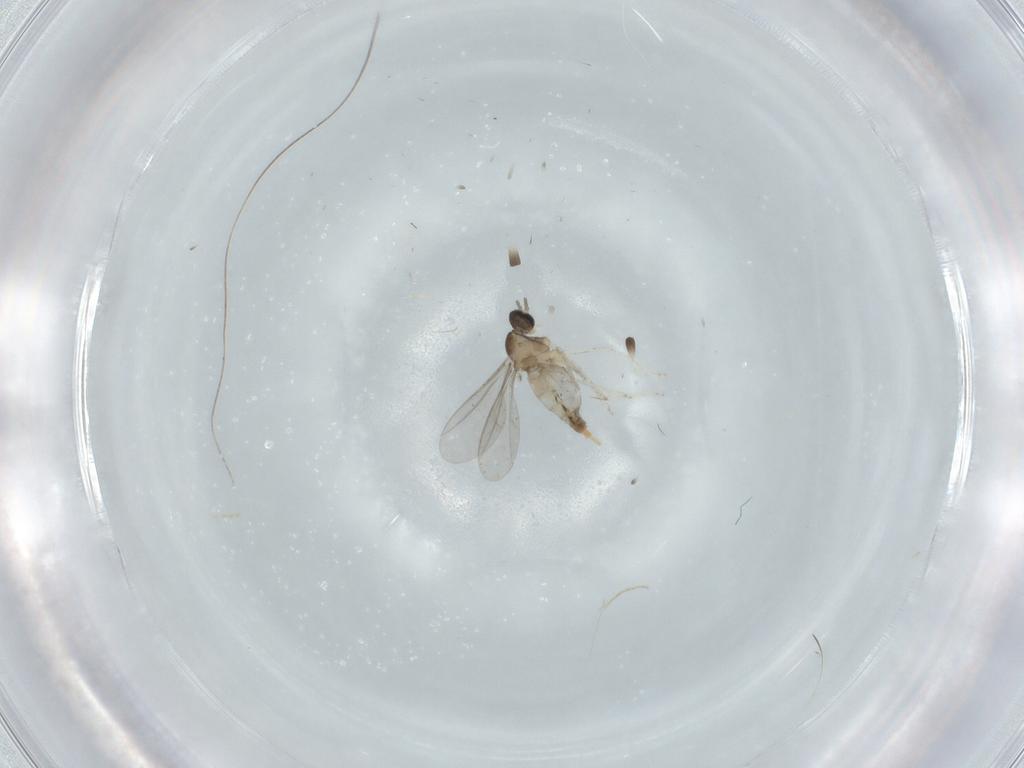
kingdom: Animalia
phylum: Arthropoda
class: Insecta
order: Diptera
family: Cecidomyiidae
